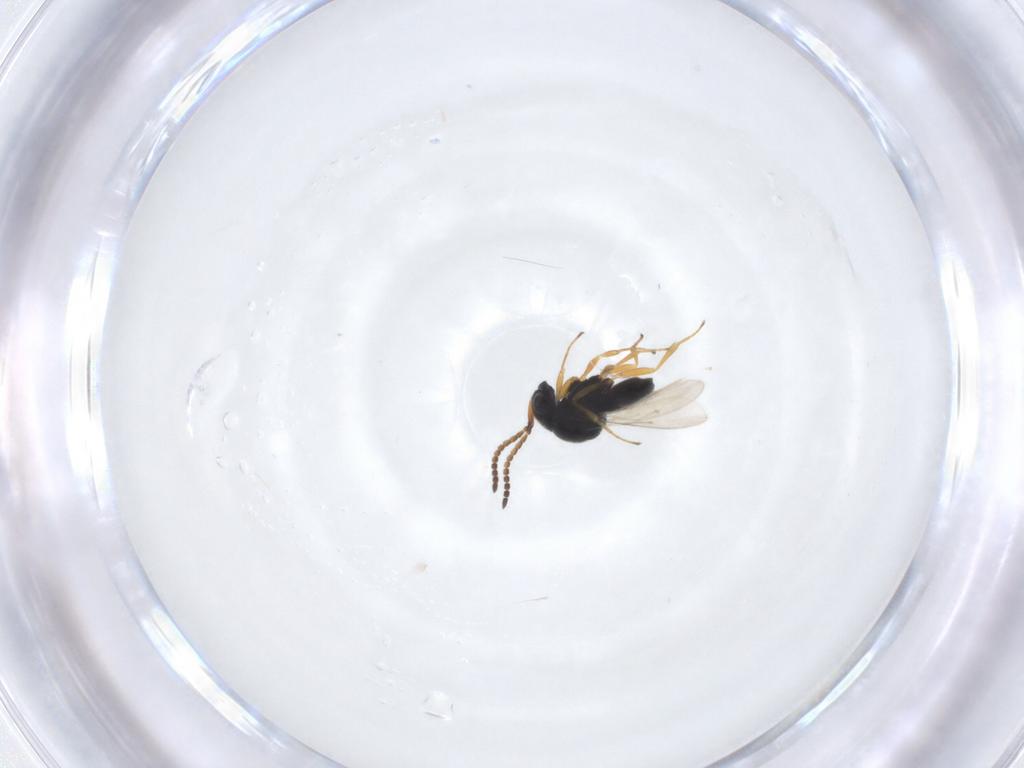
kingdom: Animalia
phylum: Arthropoda
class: Insecta
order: Hymenoptera
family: Scelionidae
